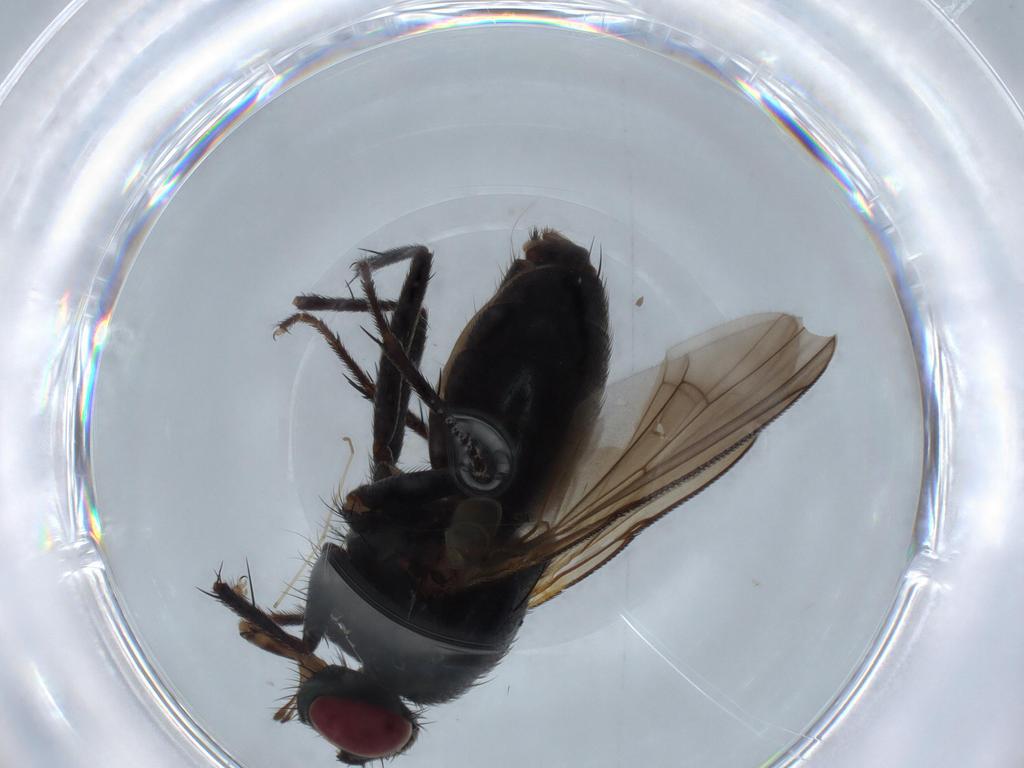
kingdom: Animalia
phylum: Arthropoda
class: Insecta
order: Diptera
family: Muscidae
